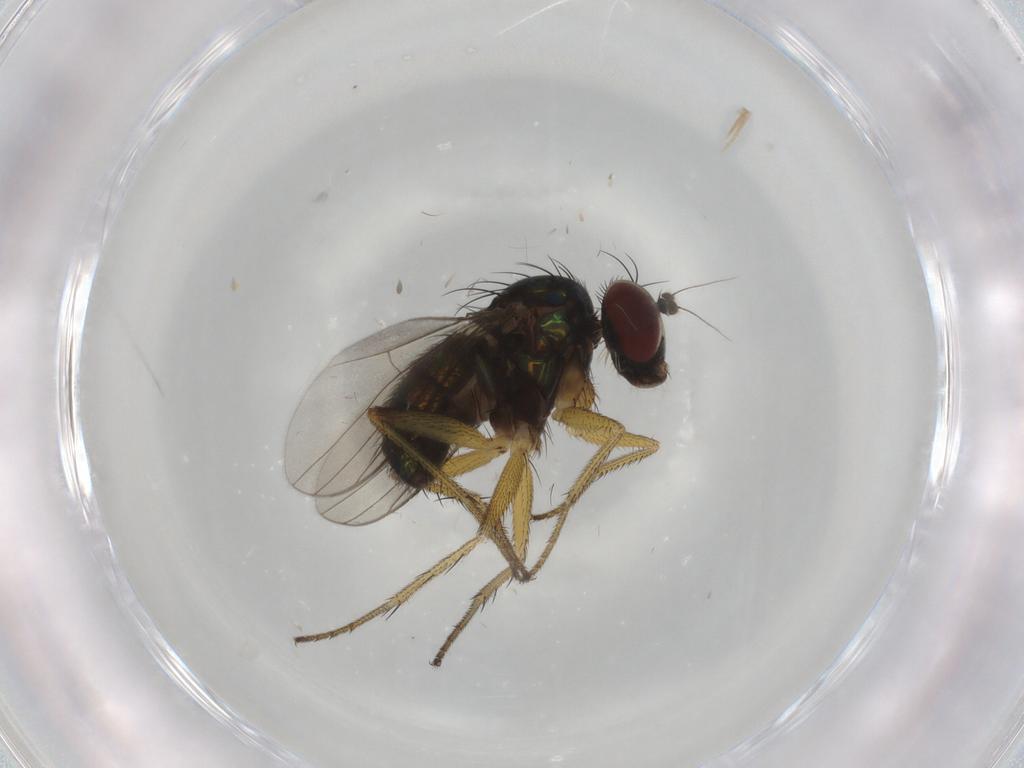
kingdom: Animalia
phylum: Arthropoda
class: Insecta
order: Diptera
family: Dolichopodidae
